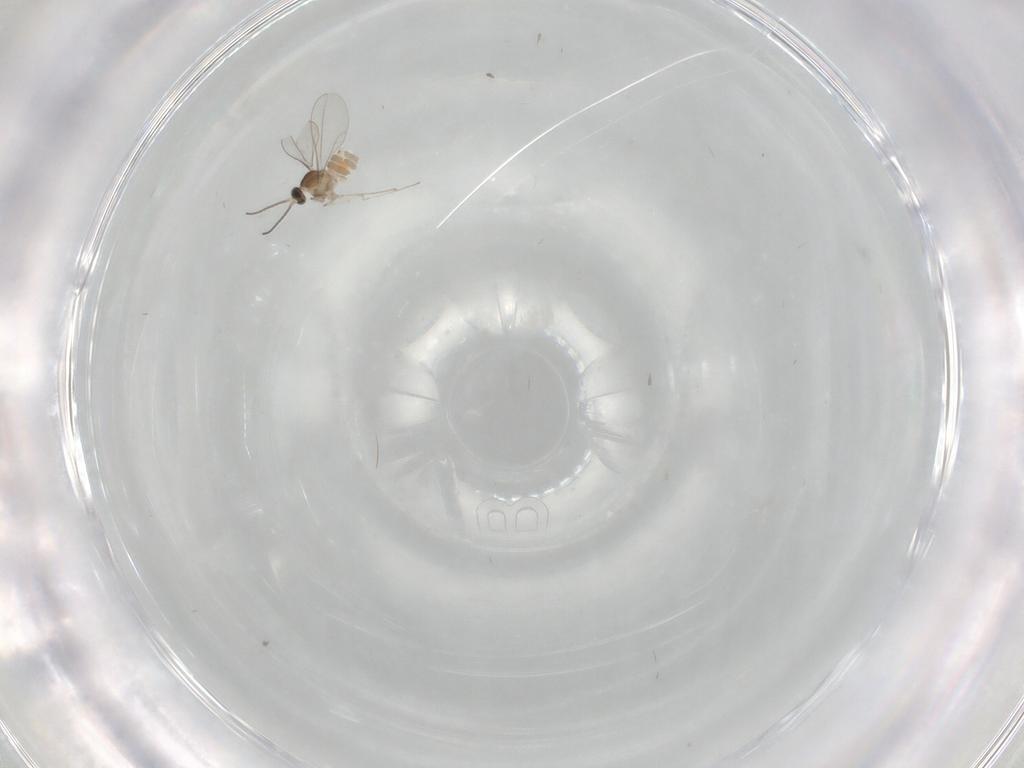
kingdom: Animalia
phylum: Arthropoda
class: Insecta
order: Diptera
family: Cecidomyiidae
